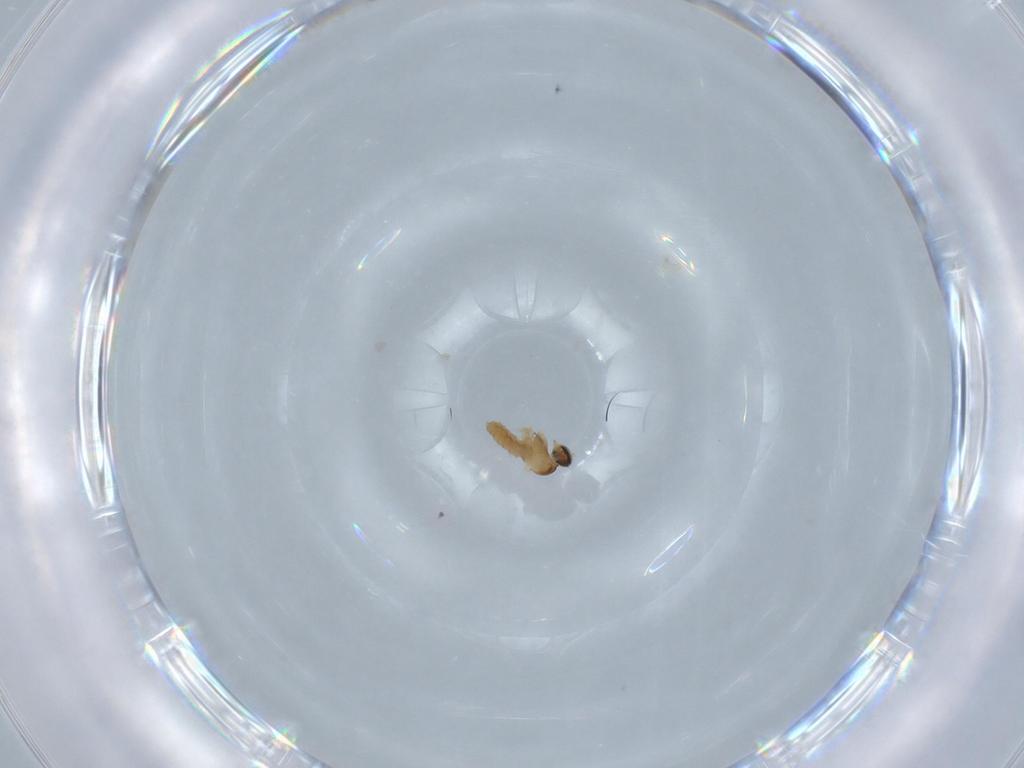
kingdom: Animalia
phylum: Arthropoda
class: Insecta
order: Diptera
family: Ceratopogonidae
